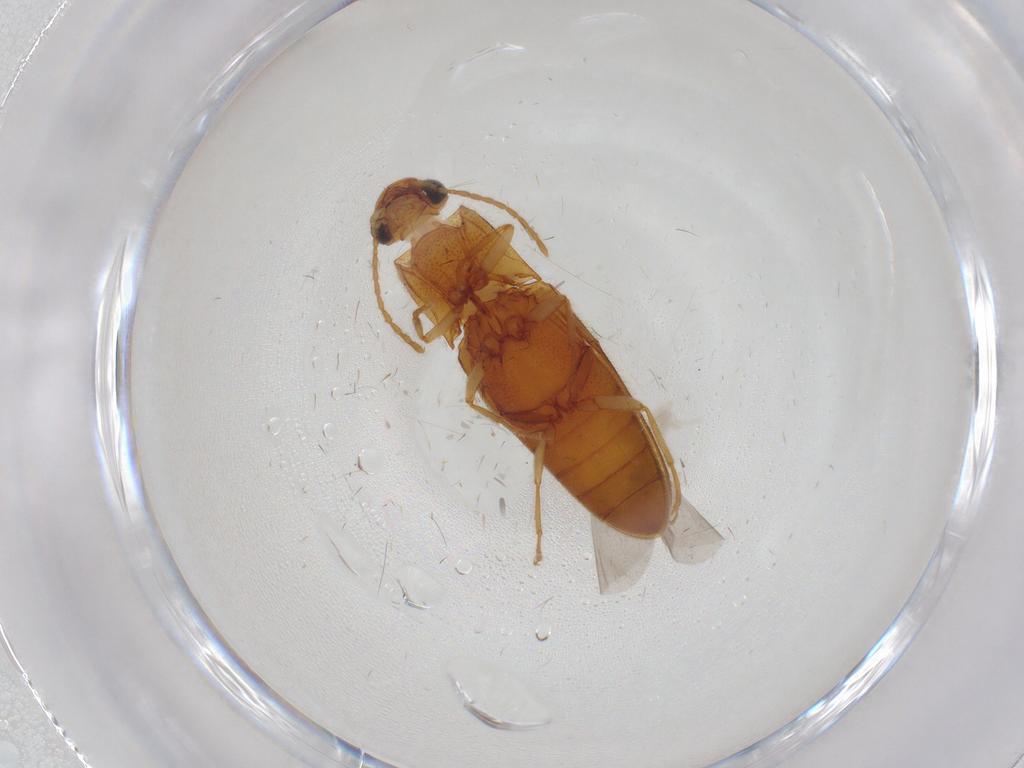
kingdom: Animalia
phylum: Arthropoda
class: Insecta
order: Coleoptera
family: Elateridae
